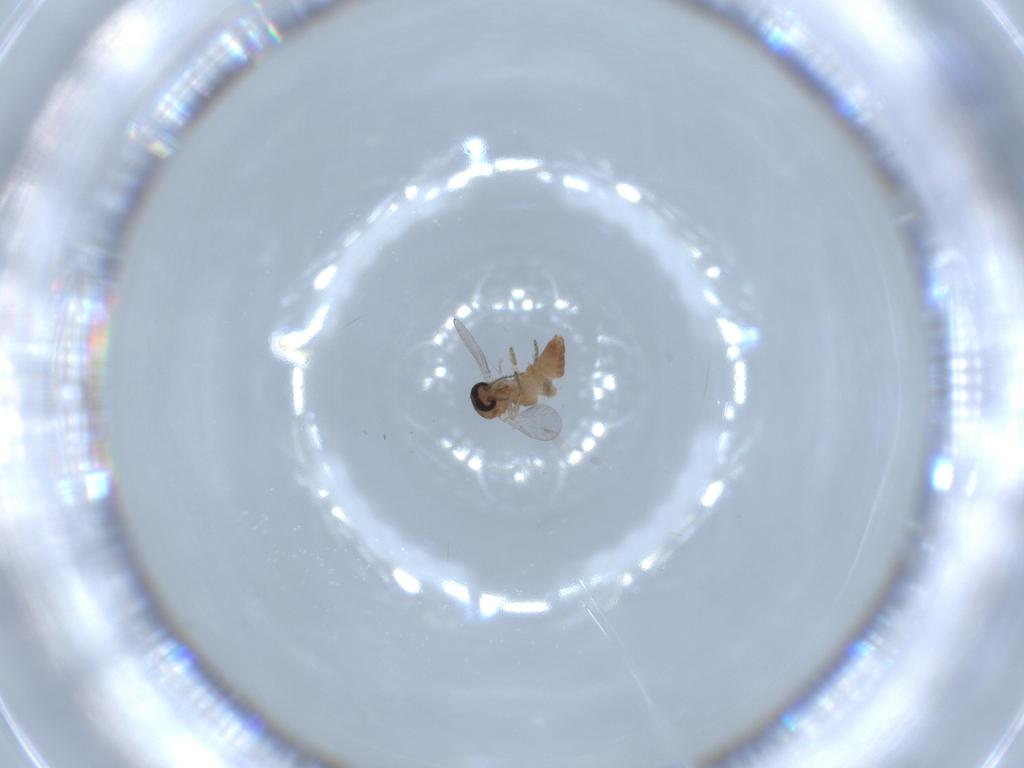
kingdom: Animalia
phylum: Arthropoda
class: Insecta
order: Diptera
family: Ceratopogonidae
